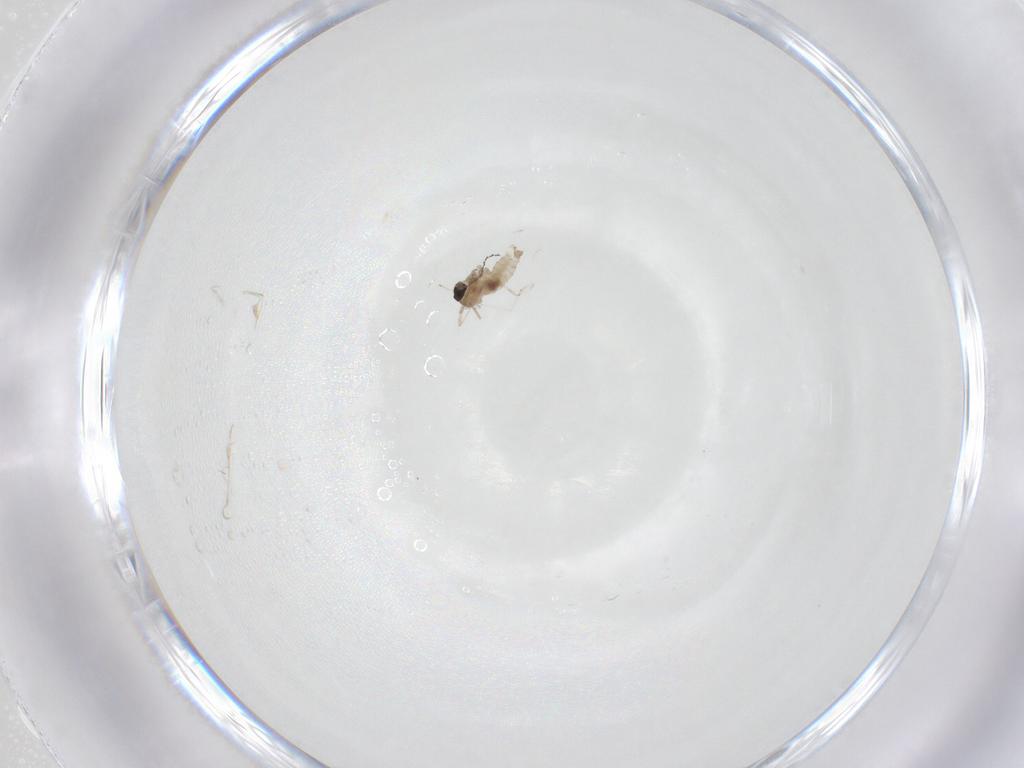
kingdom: Animalia
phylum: Arthropoda
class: Insecta
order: Diptera
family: Cecidomyiidae
